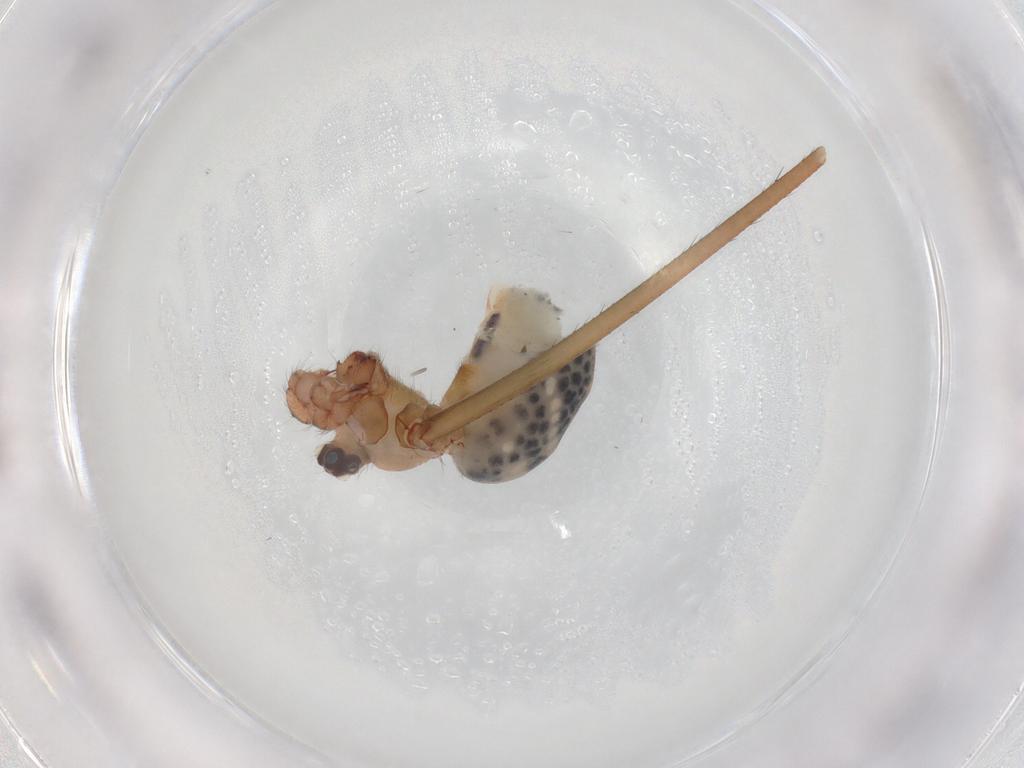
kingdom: Animalia
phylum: Arthropoda
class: Arachnida
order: Araneae
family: Pholcidae
